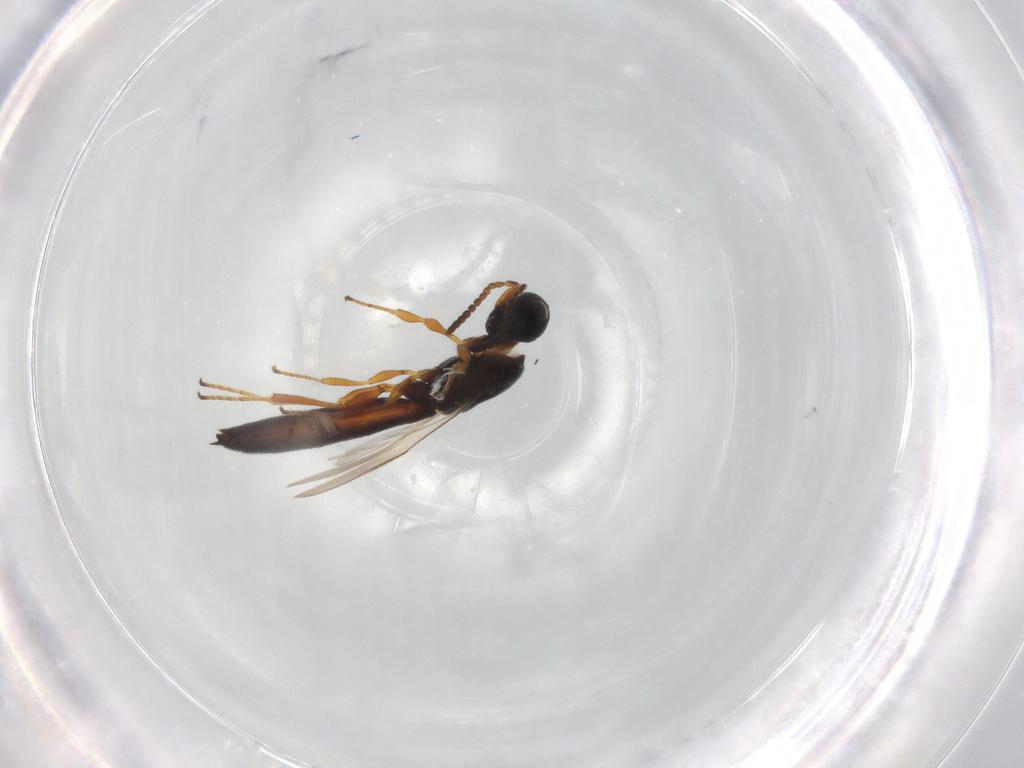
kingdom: Animalia
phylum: Arthropoda
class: Insecta
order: Hymenoptera
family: Scelionidae
